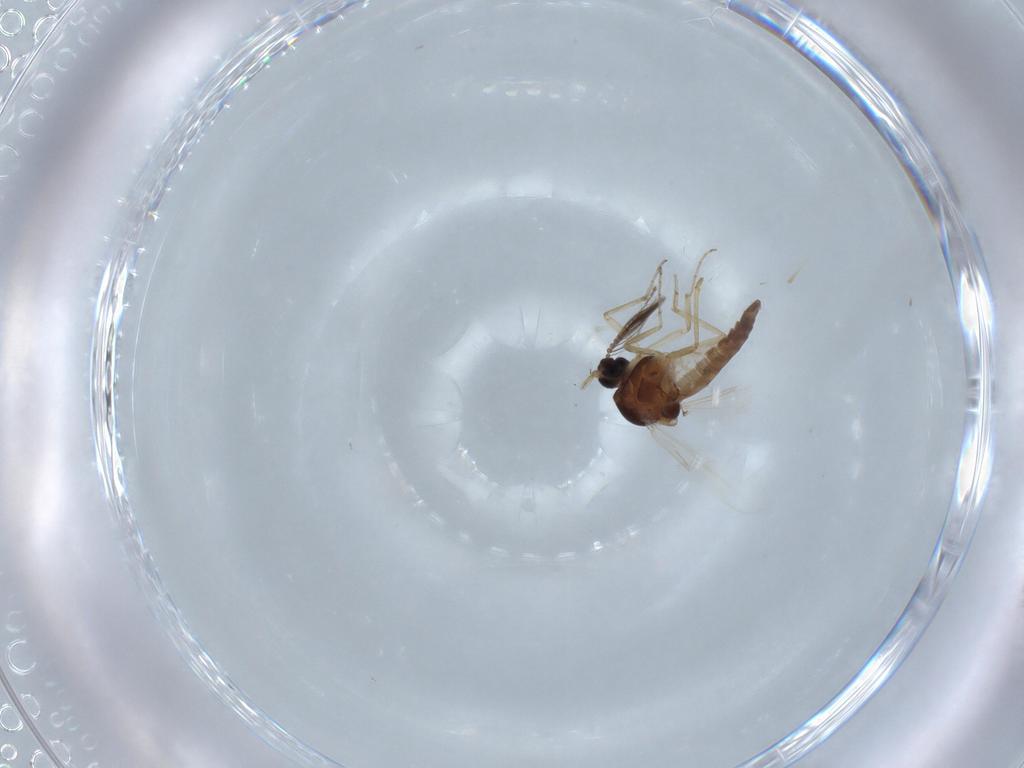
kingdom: Animalia
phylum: Arthropoda
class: Insecta
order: Diptera
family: Ceratopogonidae
